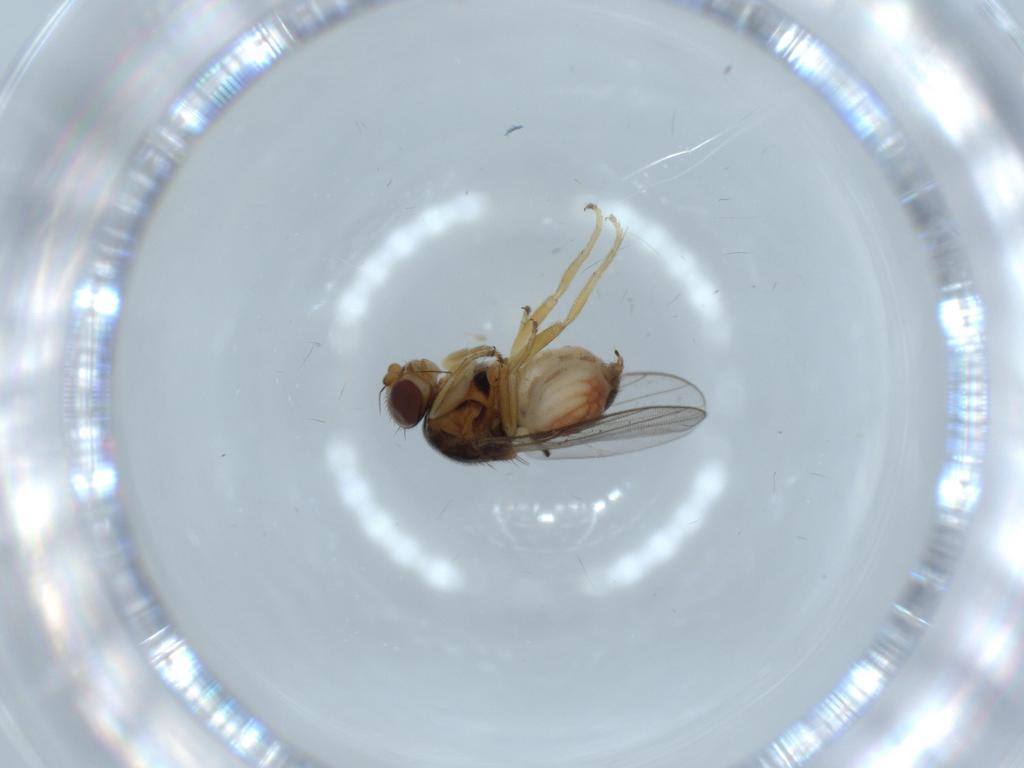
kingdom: Animalia
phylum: Arthropoda
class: Insecta
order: Diptera
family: Chloropidae
